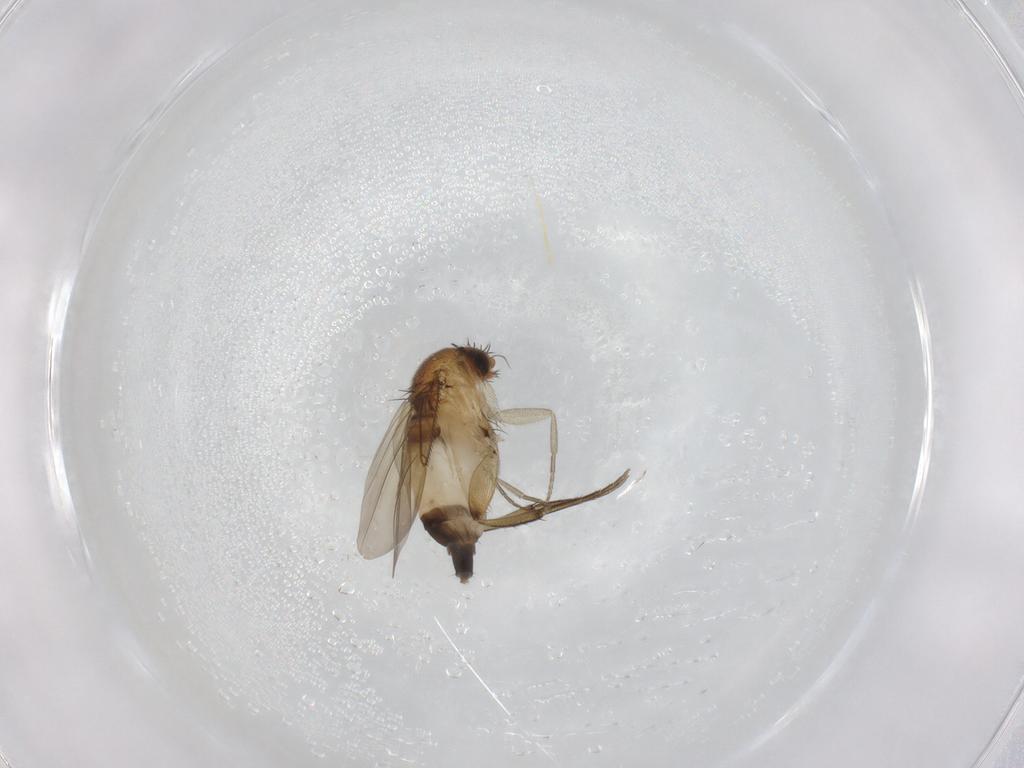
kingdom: Animalia
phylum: Arthropoda
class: Insecta
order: Diptera
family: Phoridae
